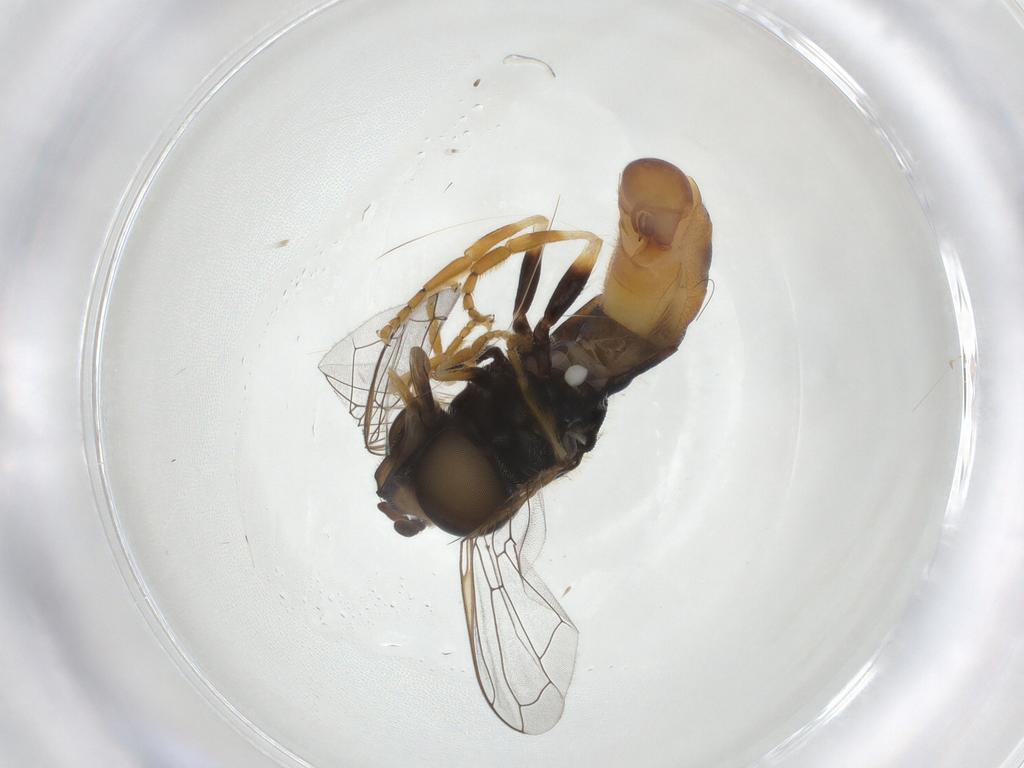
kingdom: Animalia
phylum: Arthropoda
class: Insecta
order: Diptera
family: Syrphidae
